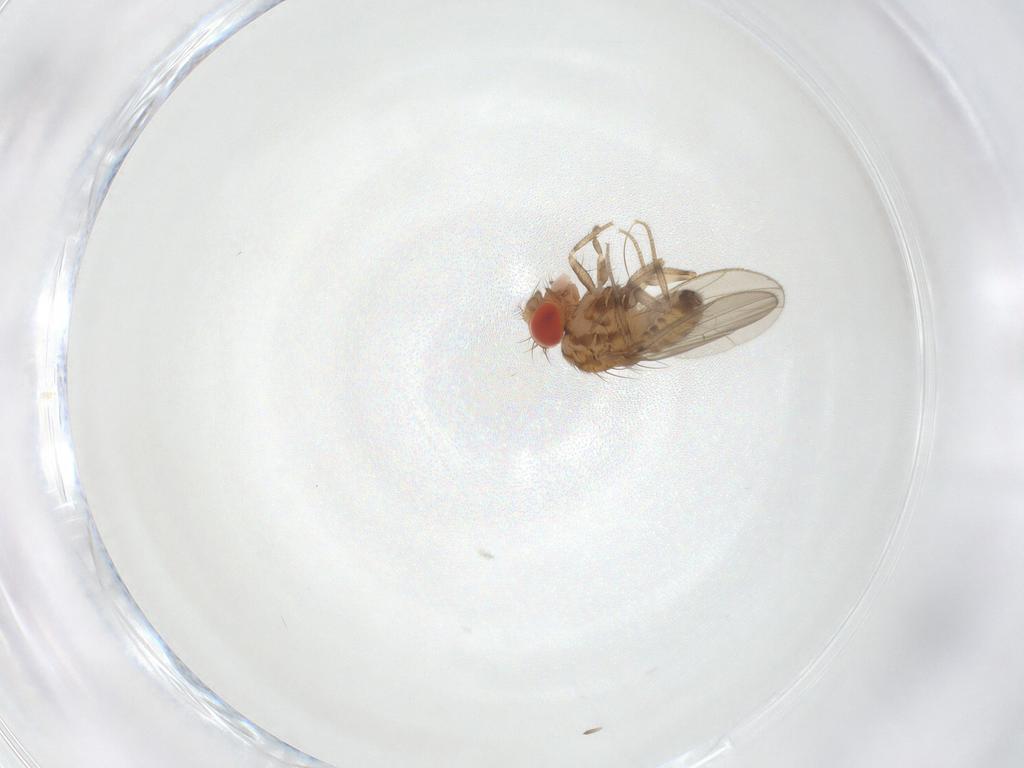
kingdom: Animalia
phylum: Arthropoda
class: Insecta
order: Diptera
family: Drosophilidae
